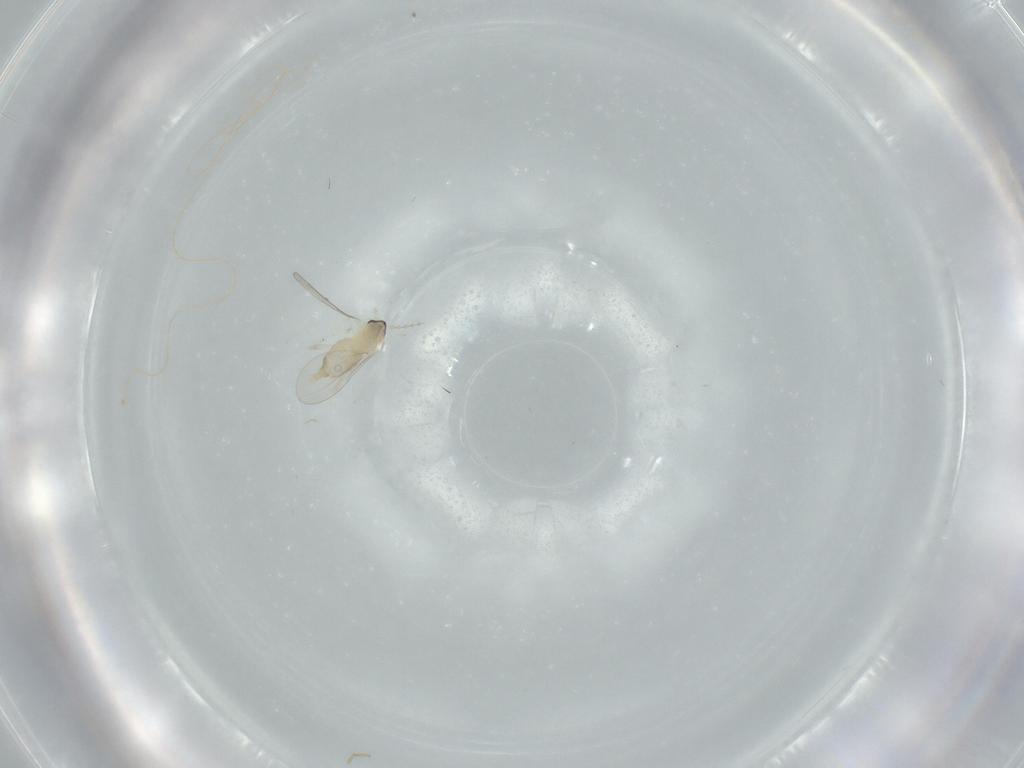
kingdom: Animalia
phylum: Arthropoda
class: Insecta
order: Diptera
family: Cecidomyiidae
